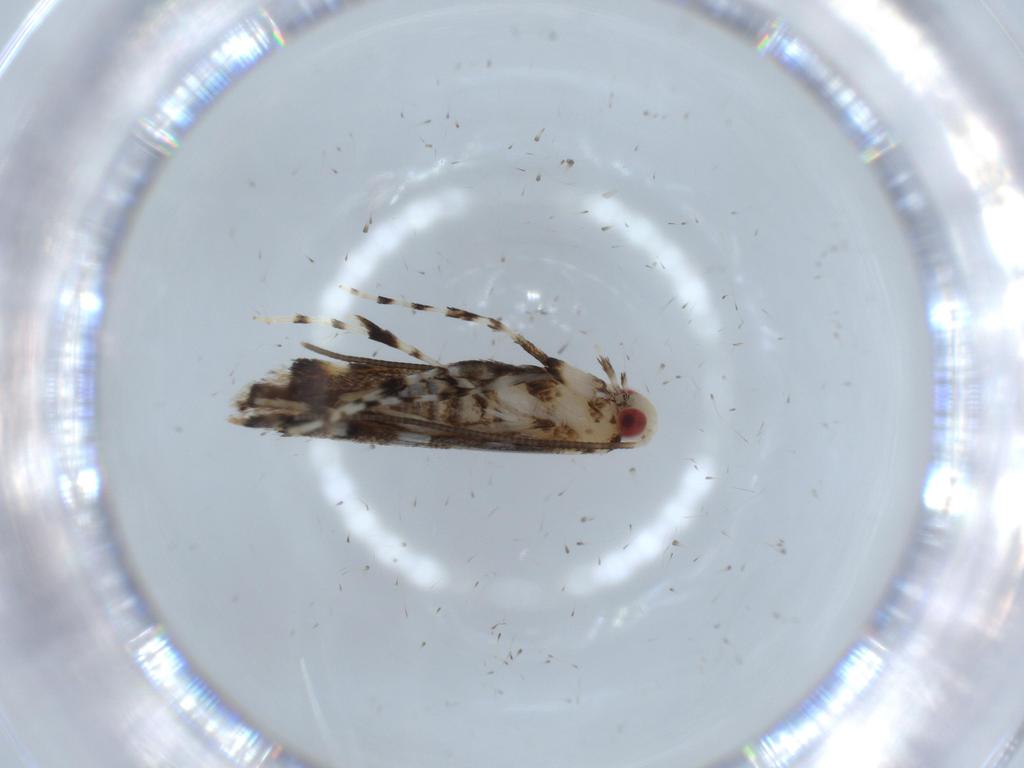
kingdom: Animalia
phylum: Arthropoda
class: Insecta
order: Lepidoptera
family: Gracillariidae
